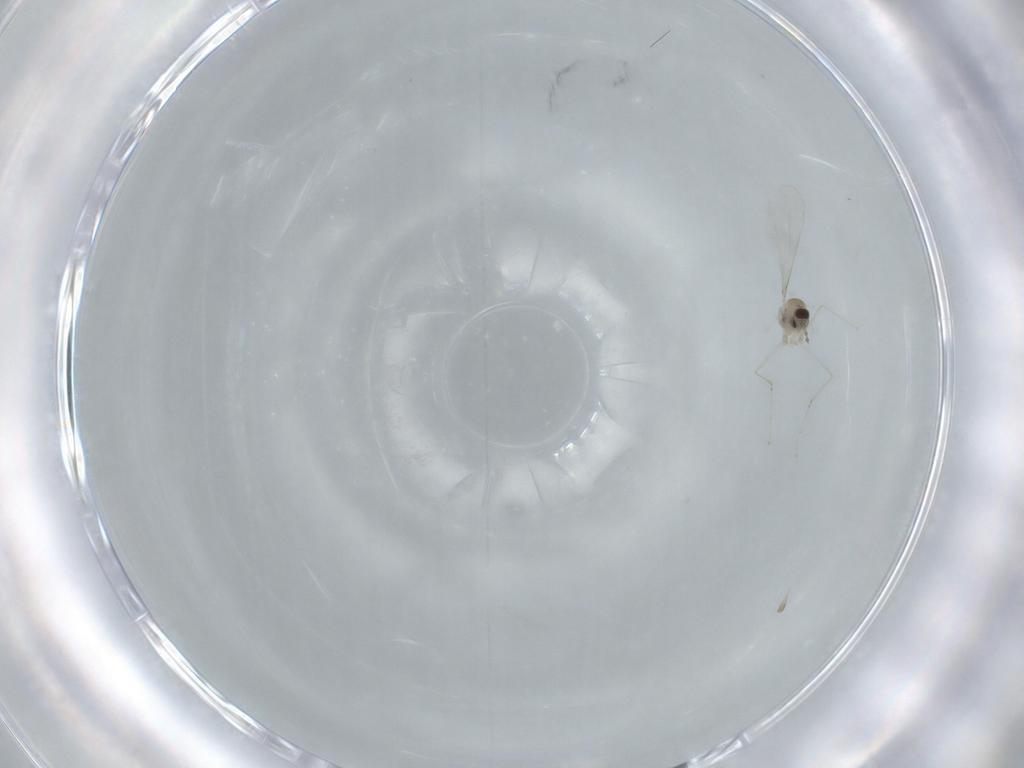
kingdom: Animalia
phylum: Arthropoda
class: Insecta
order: Diptera
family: Cecidomyiidae
